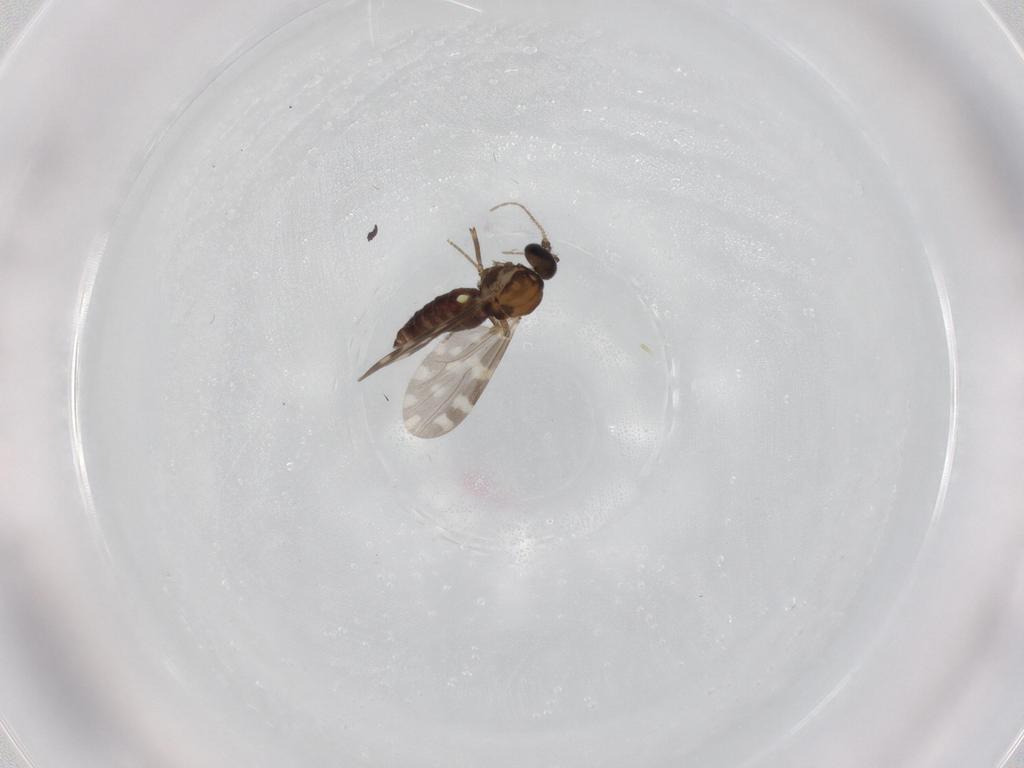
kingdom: Animalia
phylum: Arthropoda
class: Insecta
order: Diptera
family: Ceratopogonidae
